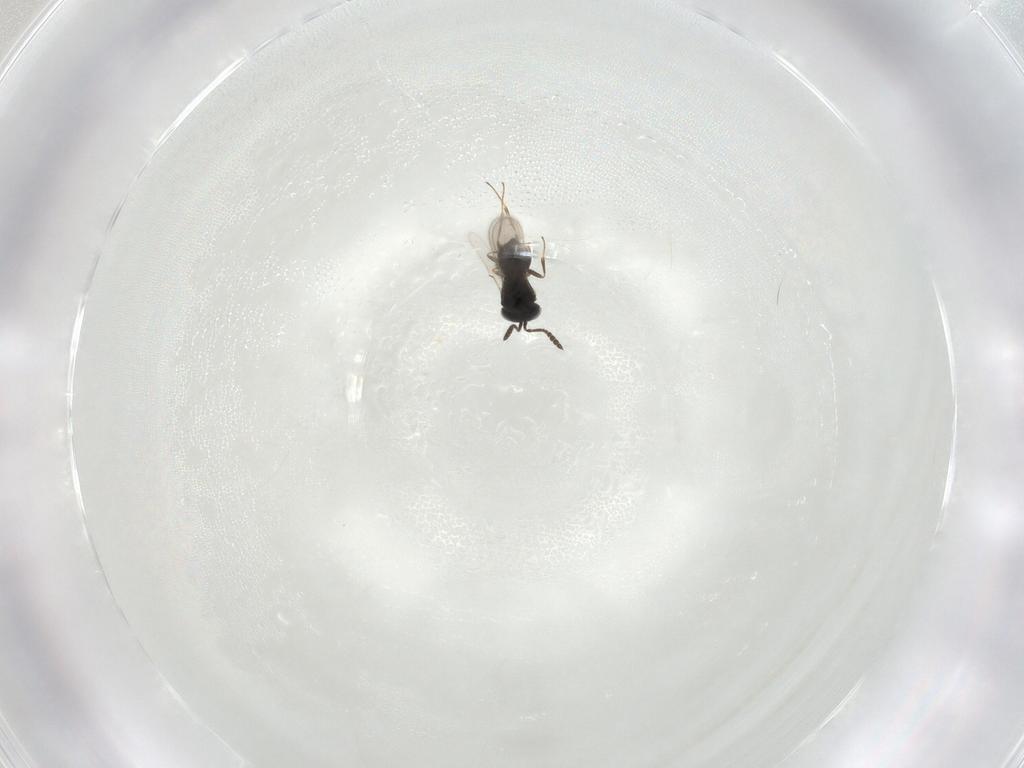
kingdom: Animalia
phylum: Arthropoda
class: Insecta
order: Hymenoptera
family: Scelionidae
